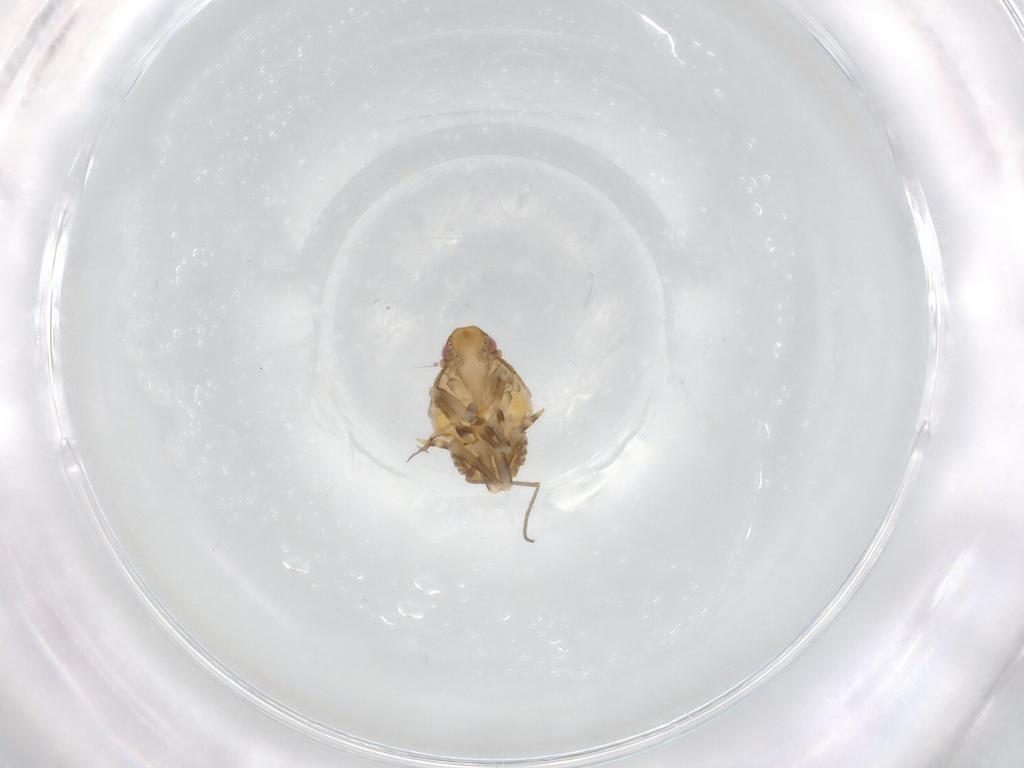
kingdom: Animalia
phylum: Arthropoda
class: Insecta
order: Hemiptera
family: Flatidae
